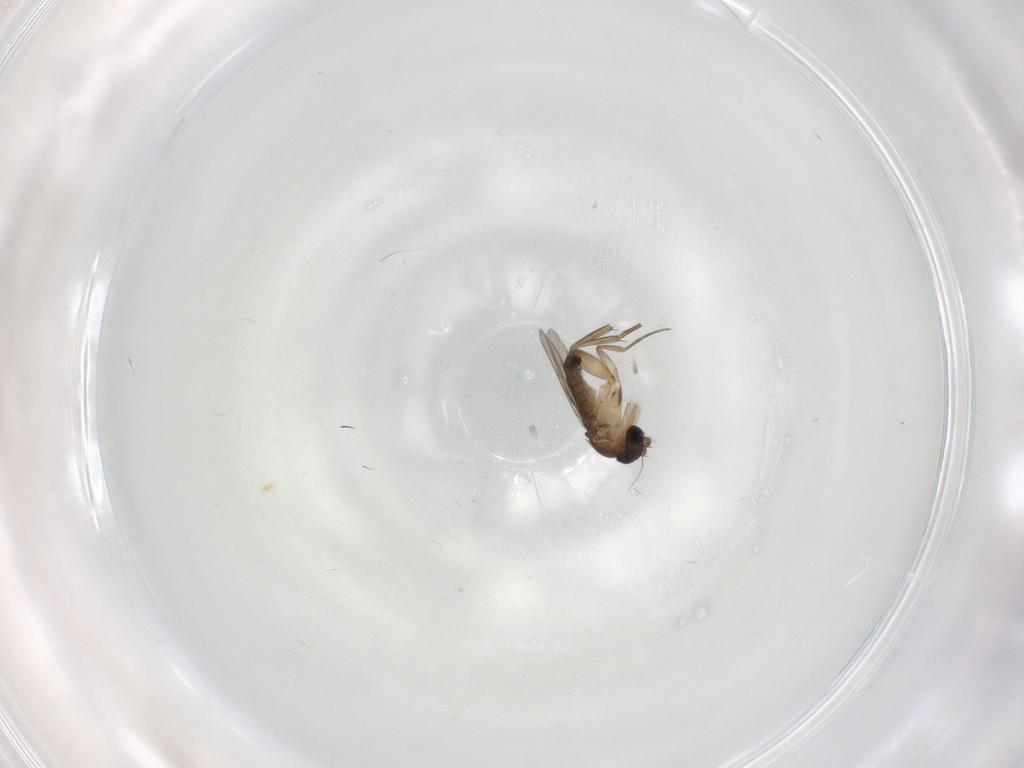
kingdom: Animalia
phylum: Arthropoda
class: Insecta
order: Diptera
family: Phoridae
